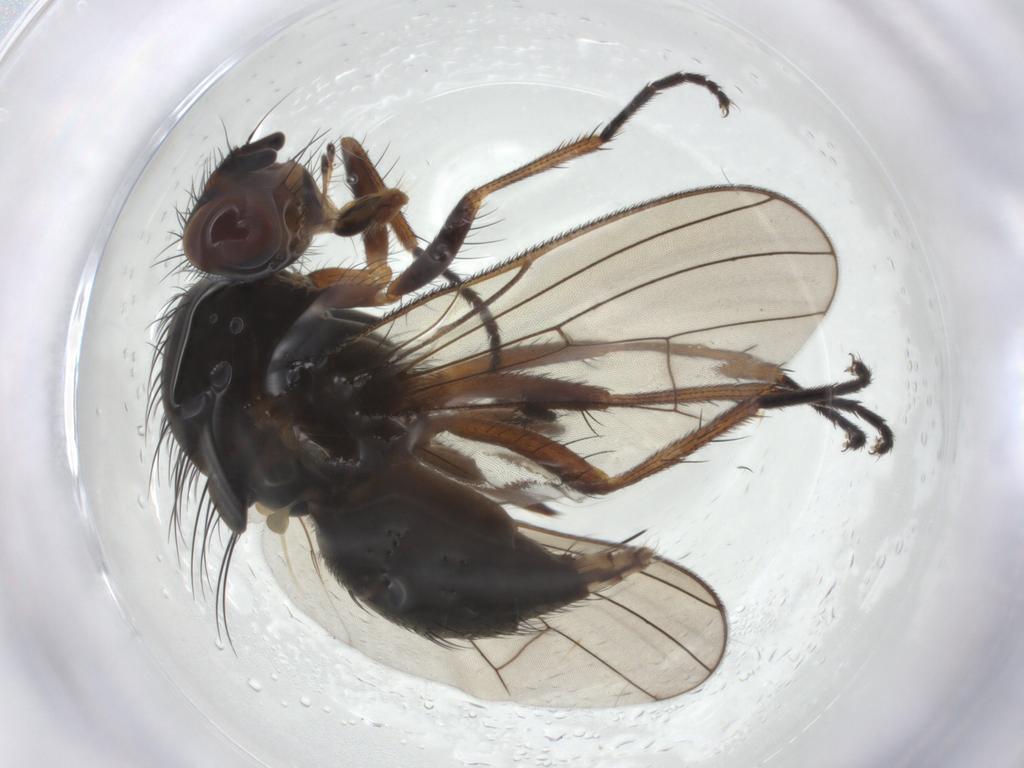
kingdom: Animalia
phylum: Arthropoda
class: Insecta
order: Diptera
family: Anthomyiidae
